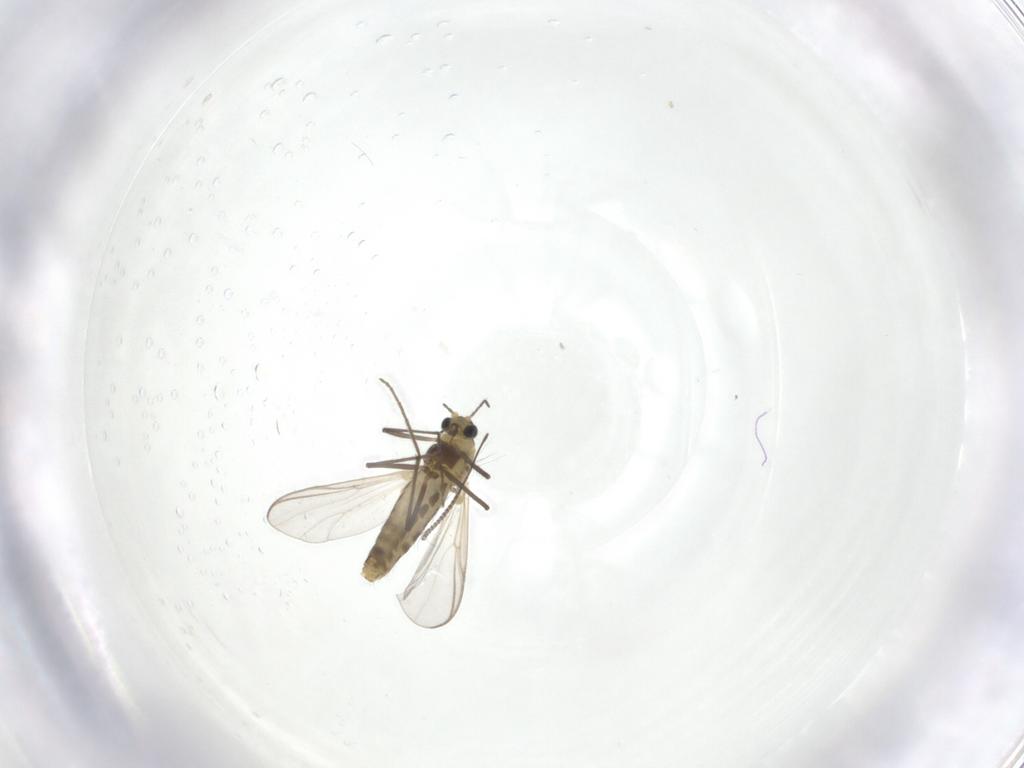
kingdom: Animalia
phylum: Arthropoda
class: Insecta
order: Diptera
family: Chironomidae
